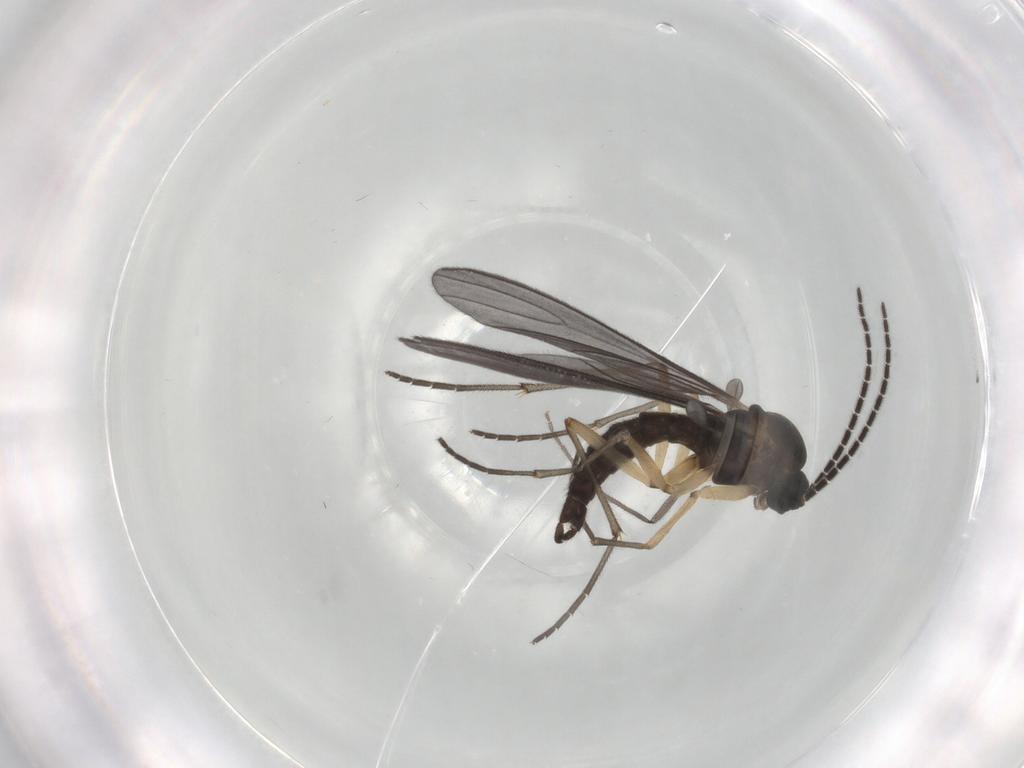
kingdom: Animalia
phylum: Arthropoda
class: Insecta
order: Diptera
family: Sciaridae
